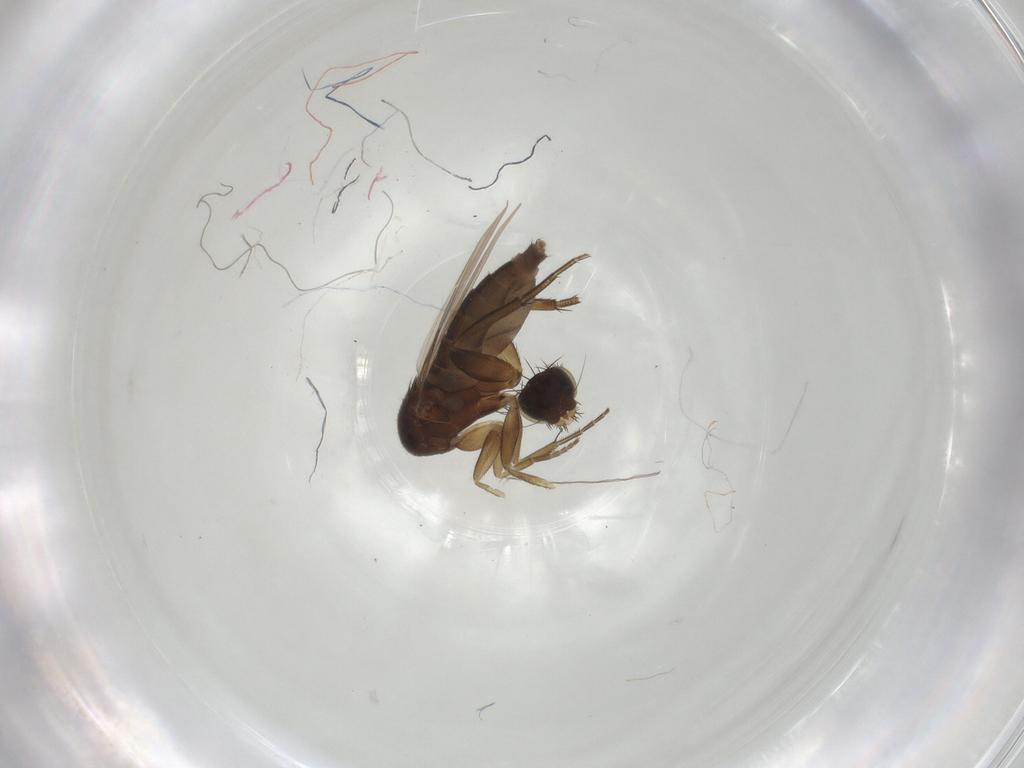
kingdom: Animalia
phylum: Arthropoda
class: Insecta
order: Diptera
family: Phoridae
